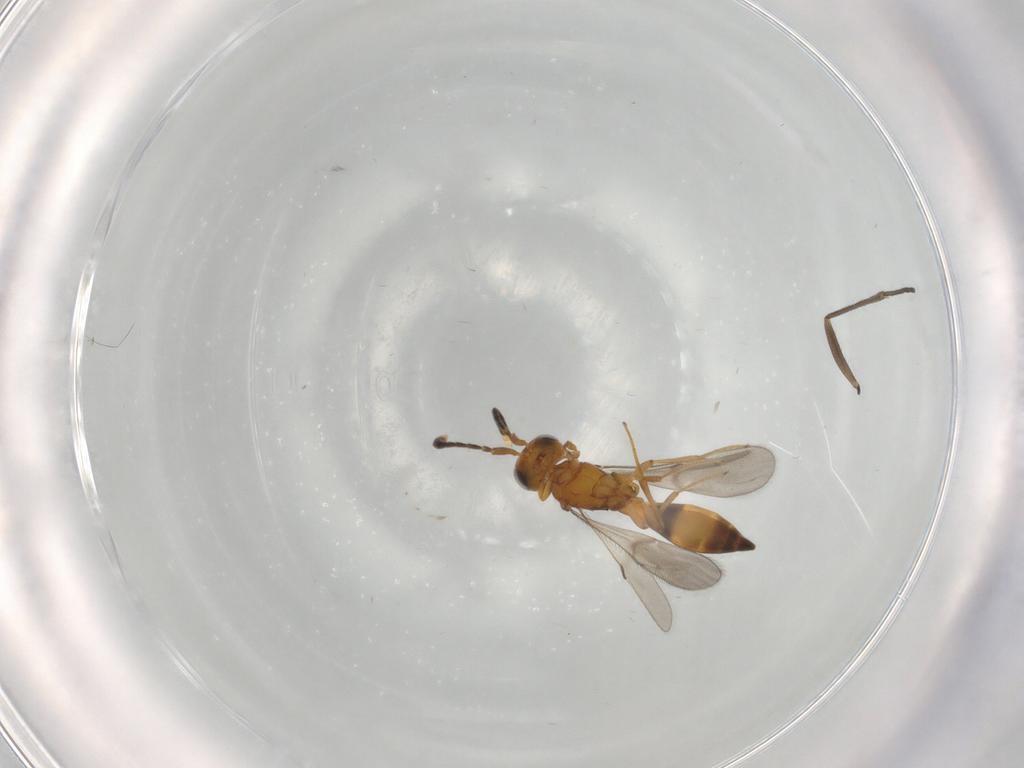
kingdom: Animalia
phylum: Arthropoda
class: Insecta
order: Hymenoptera
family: Scelionidae
